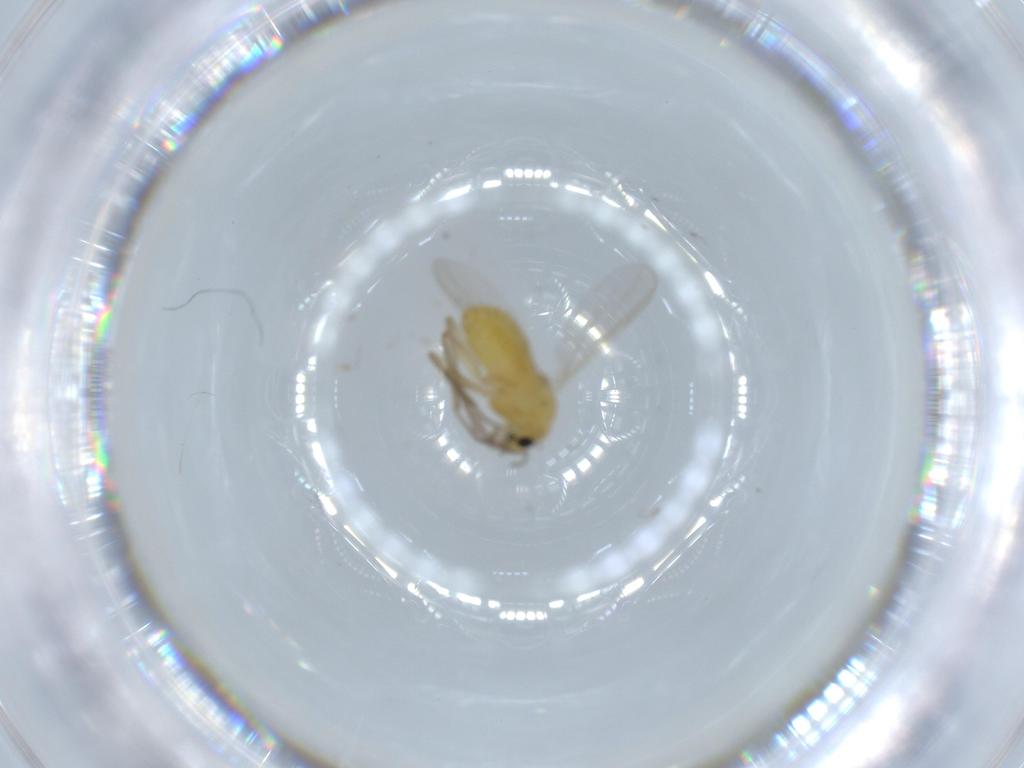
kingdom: Animalia
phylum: Arthropoda
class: Insecta
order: Diptera
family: Chironomidae
